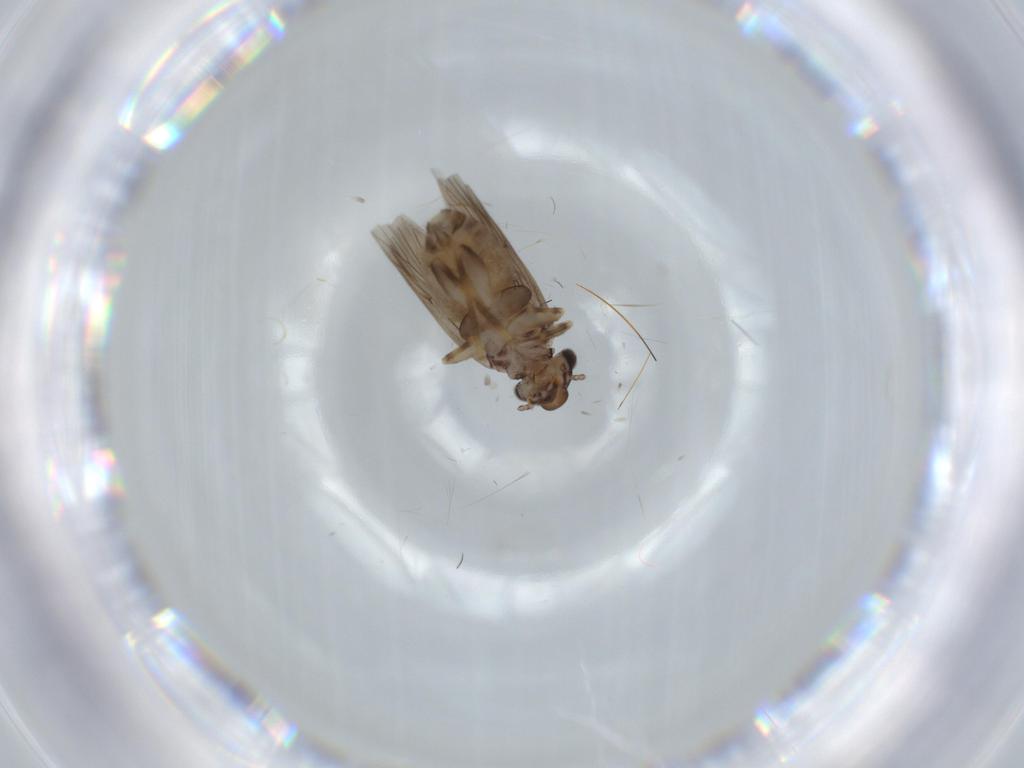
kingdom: Animalia
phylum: Arthropoda
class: Insecta
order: Psocodea
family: Lepidopsocidae
